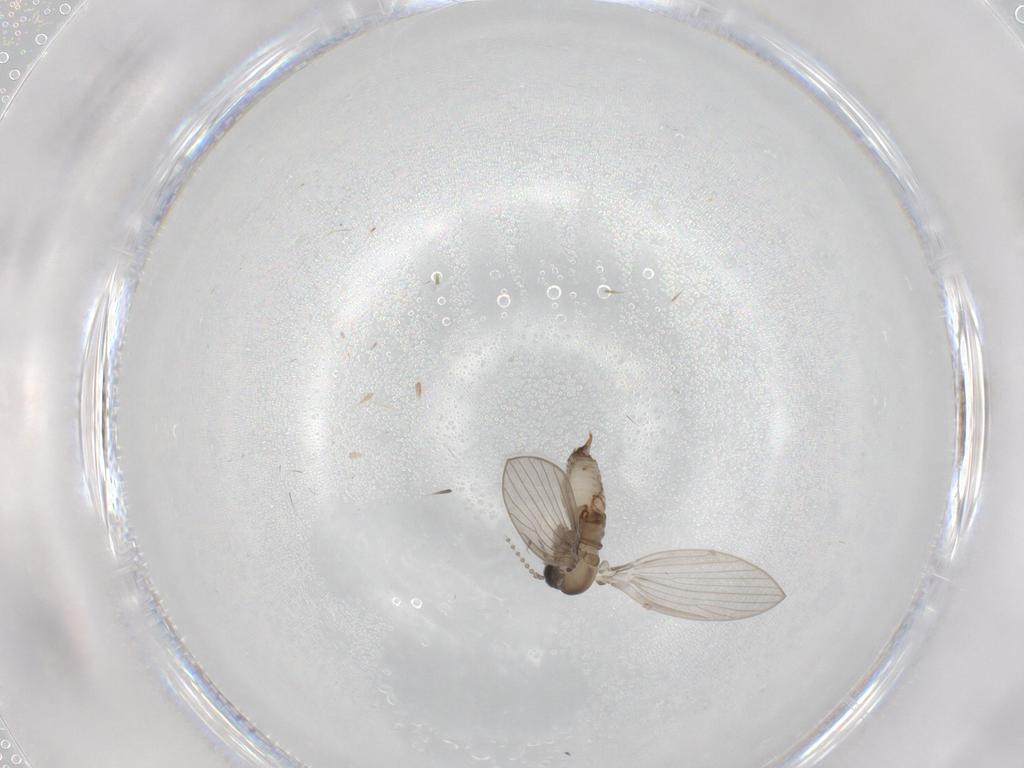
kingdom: Animalia
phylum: Arthropoda
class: Insecta
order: Diptera
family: Psychodidae
